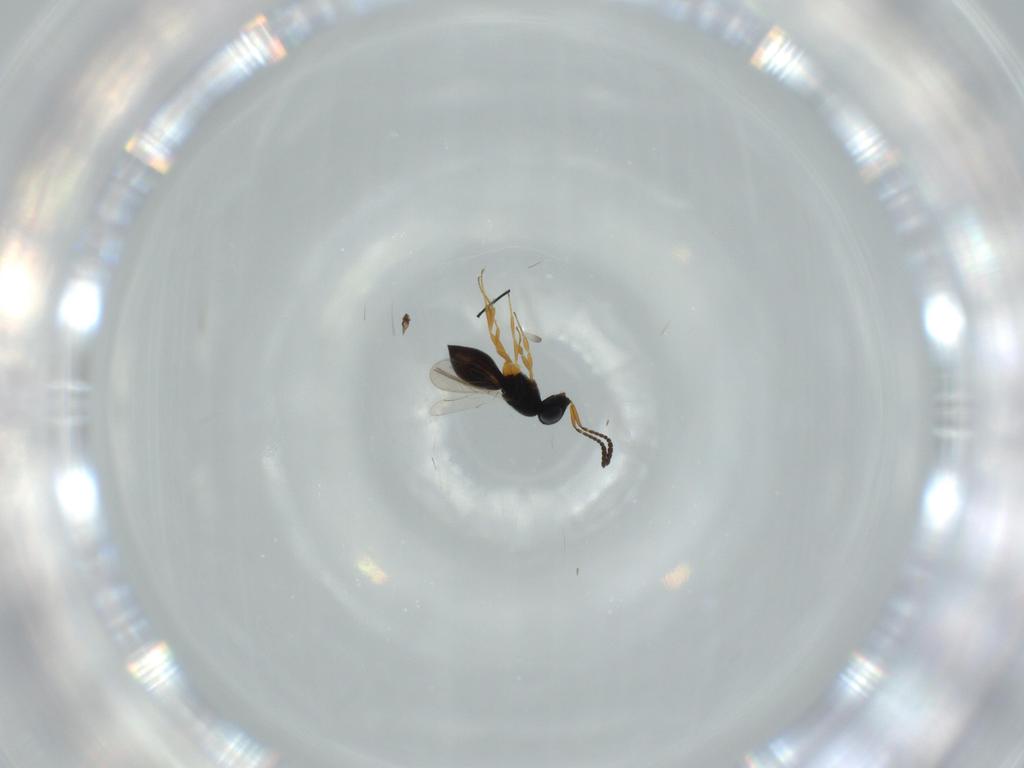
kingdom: Animalia
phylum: Arthropoda
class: Insecta
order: Hymenoptera
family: Scelionidae
